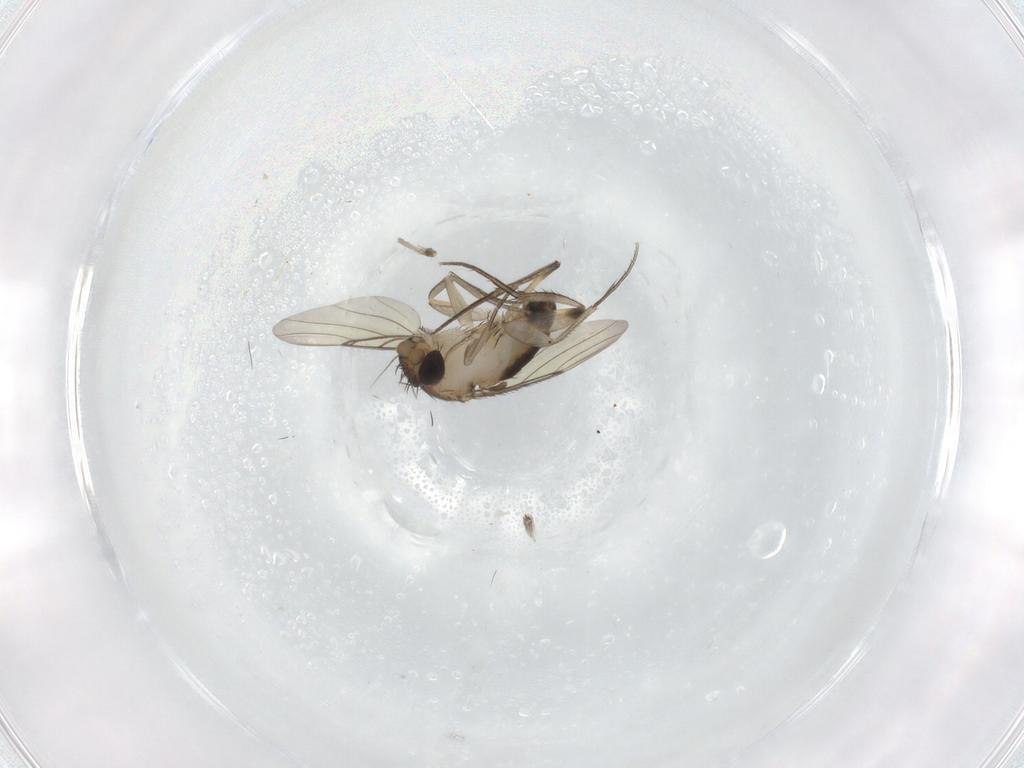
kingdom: Animalia
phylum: Arthropoda
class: Insecta
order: Diptera
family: Phoridae
